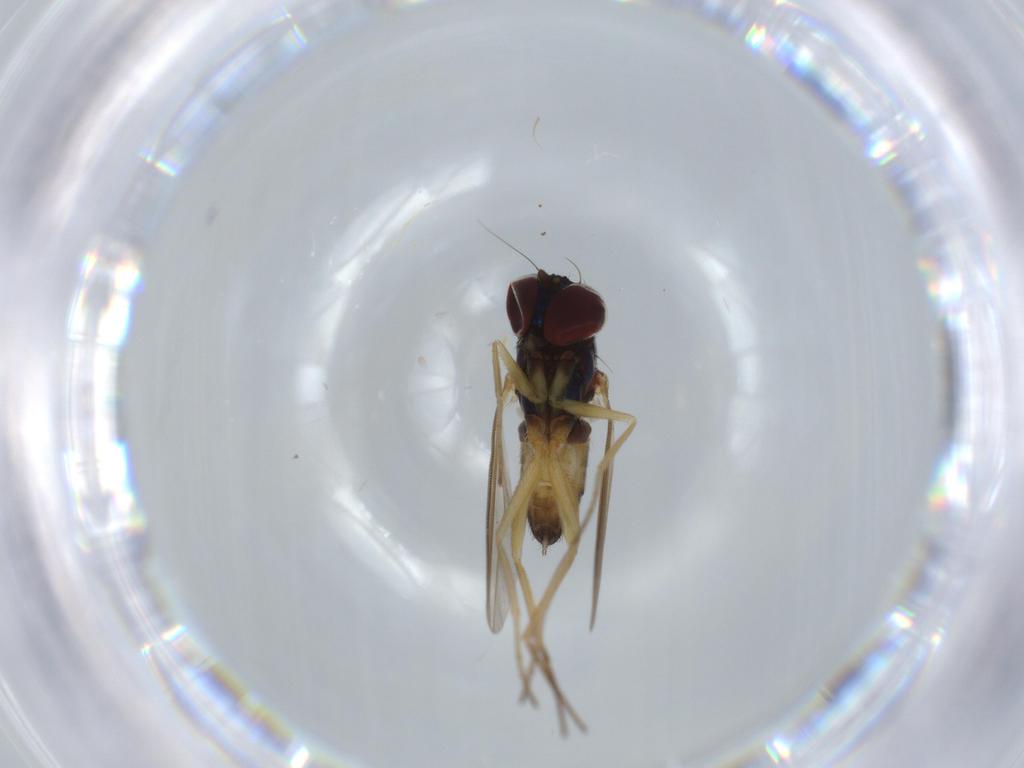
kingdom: Animalia
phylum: Arthropoda
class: Insecta
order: Diptera
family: Dolichopodidae
